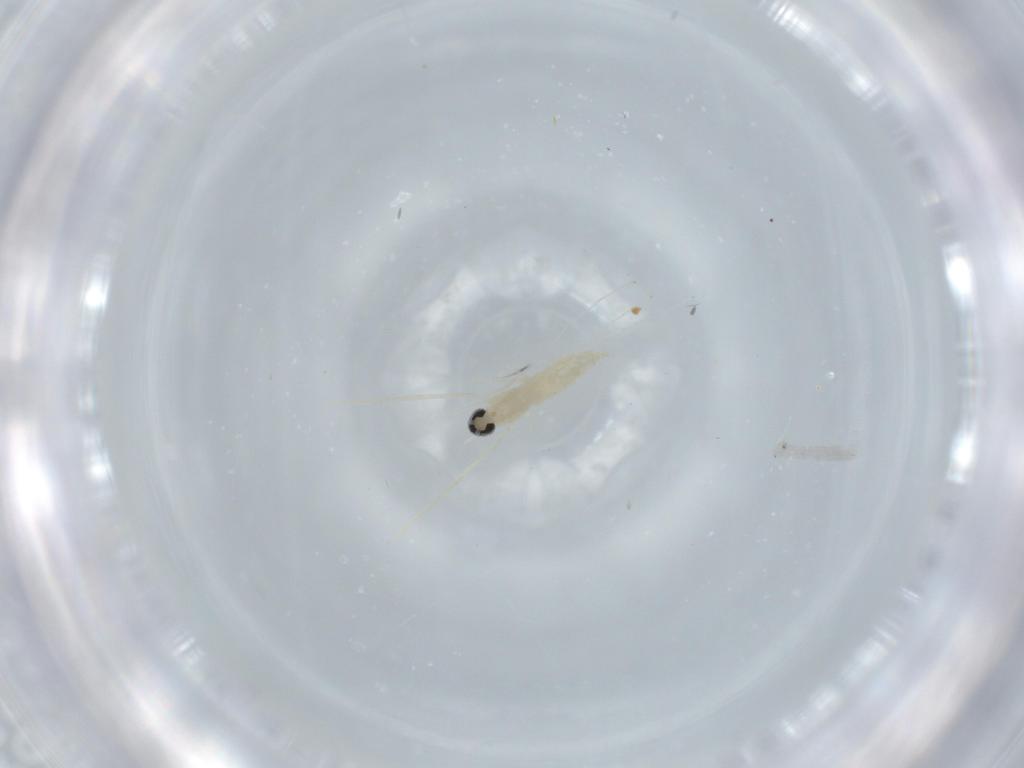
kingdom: Animalia
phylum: Arthropoda
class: Insecta
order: Diptera
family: Phoridae
